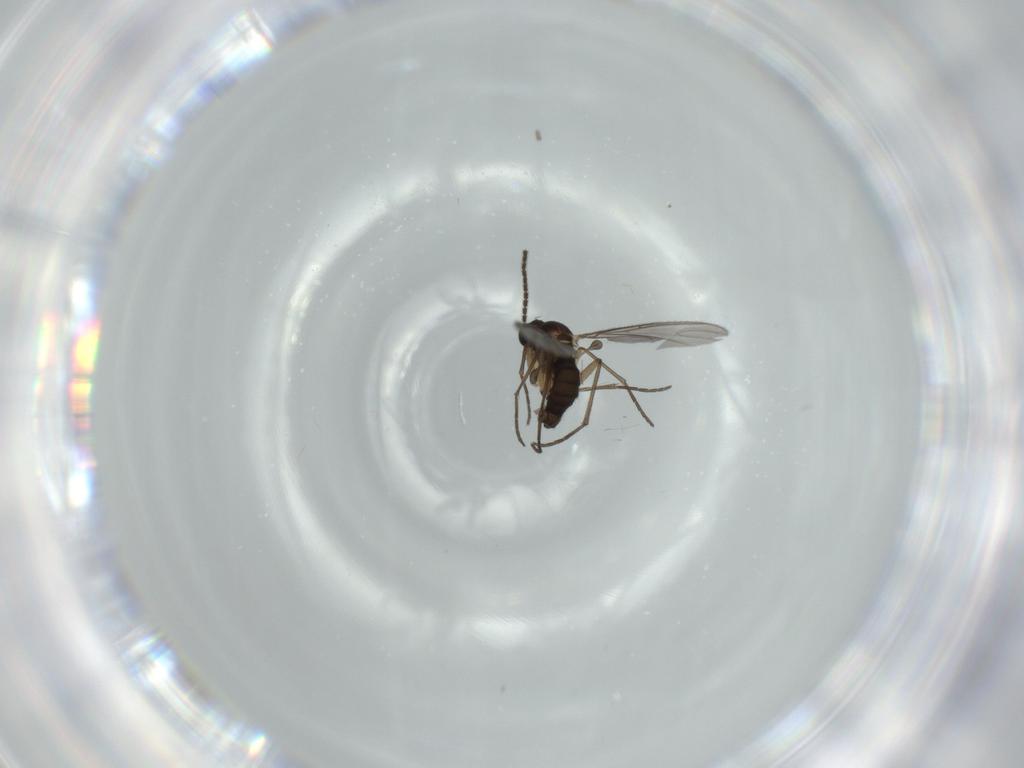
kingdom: Animalia
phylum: Arthropoda
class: Insecta
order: Diptera
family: Sciaridae
